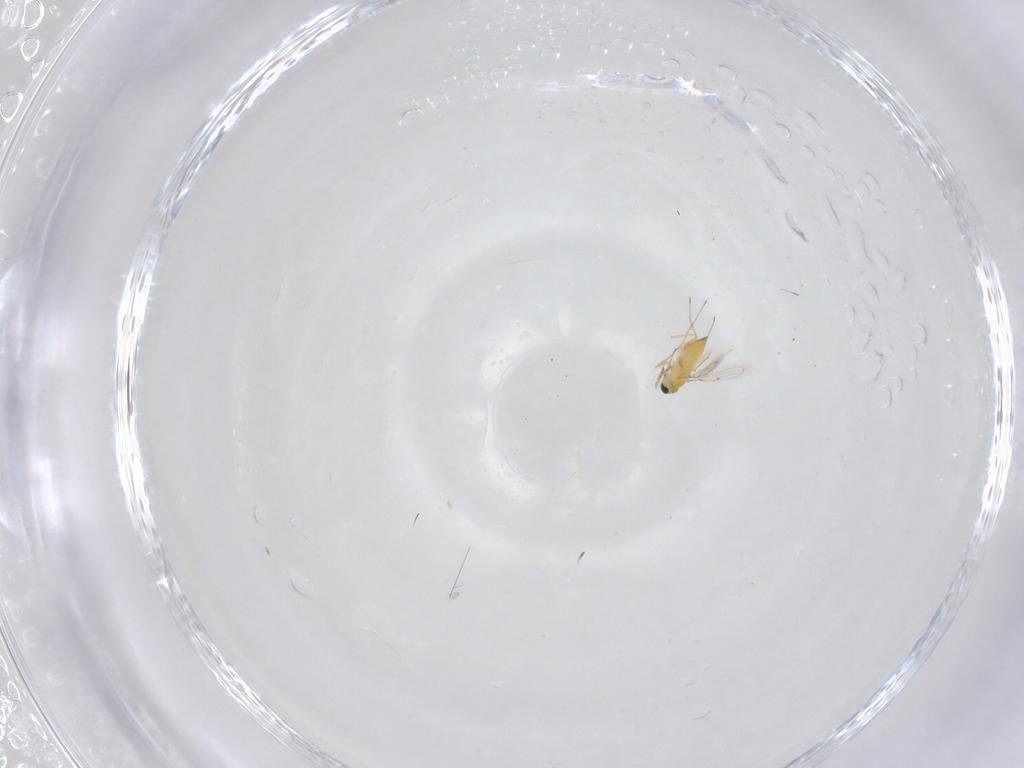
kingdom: Animalia
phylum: Arthropoda
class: Insecta
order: Hymenoptera
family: Trichogrammatidae
